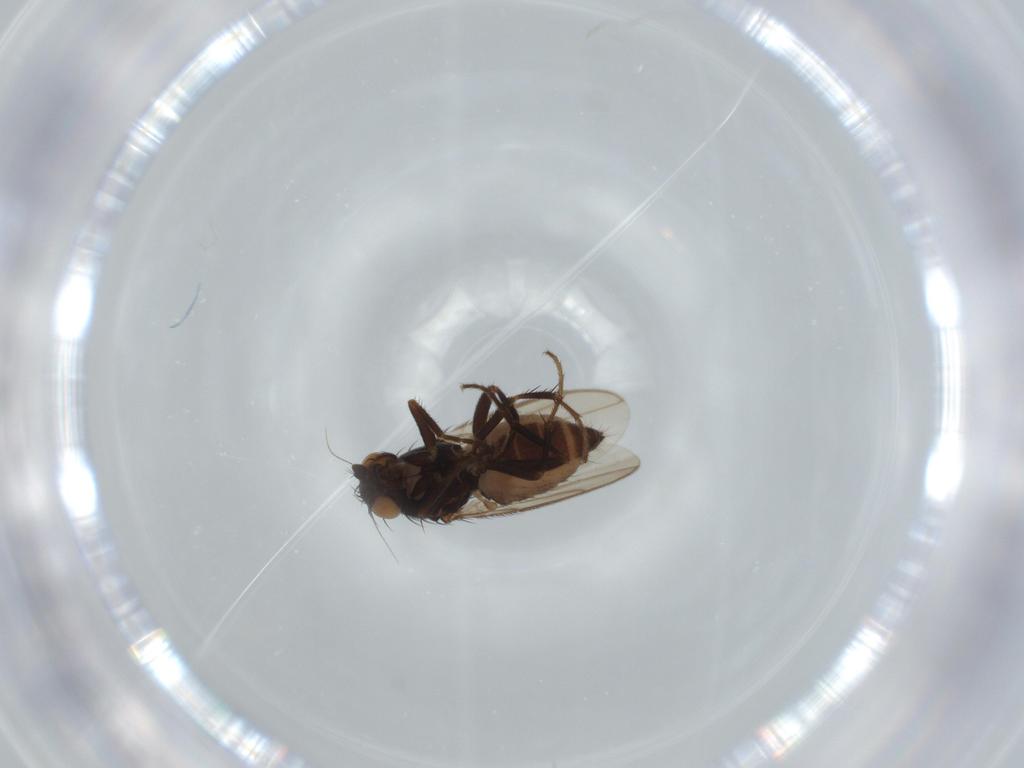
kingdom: Animalia
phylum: Arthropoda
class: Insecta
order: Diptera
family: Sphaeroceridae
